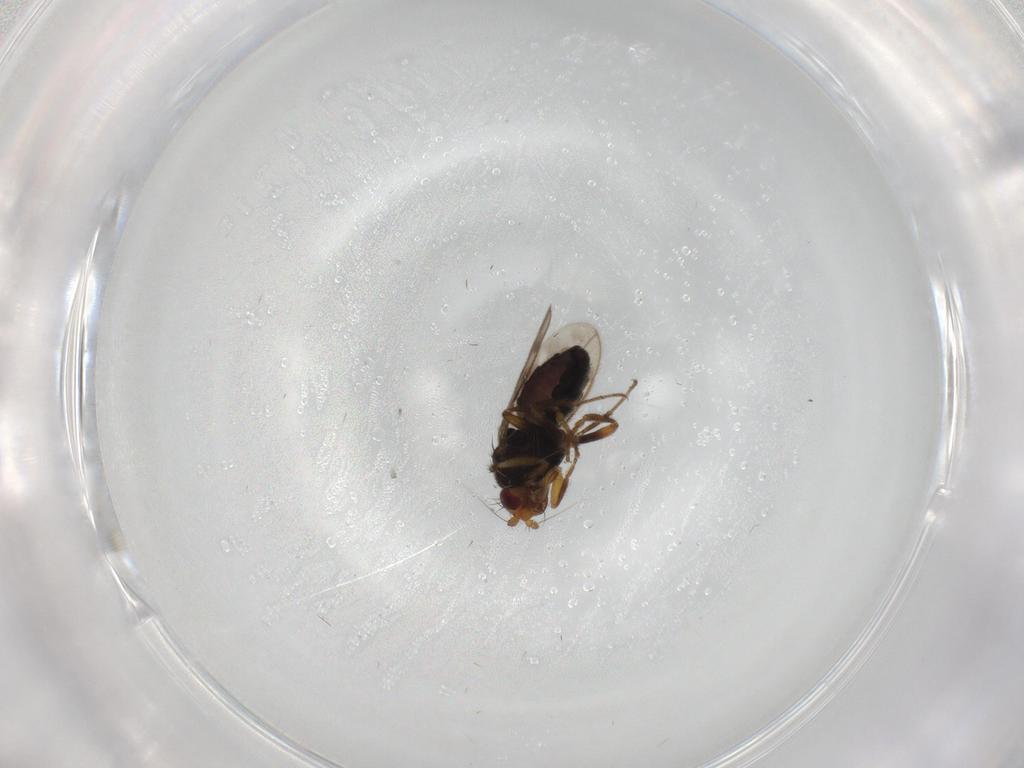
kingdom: Animalia
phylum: Arthropoda
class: Insecta
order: Diptera
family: Sphaeroceridae
